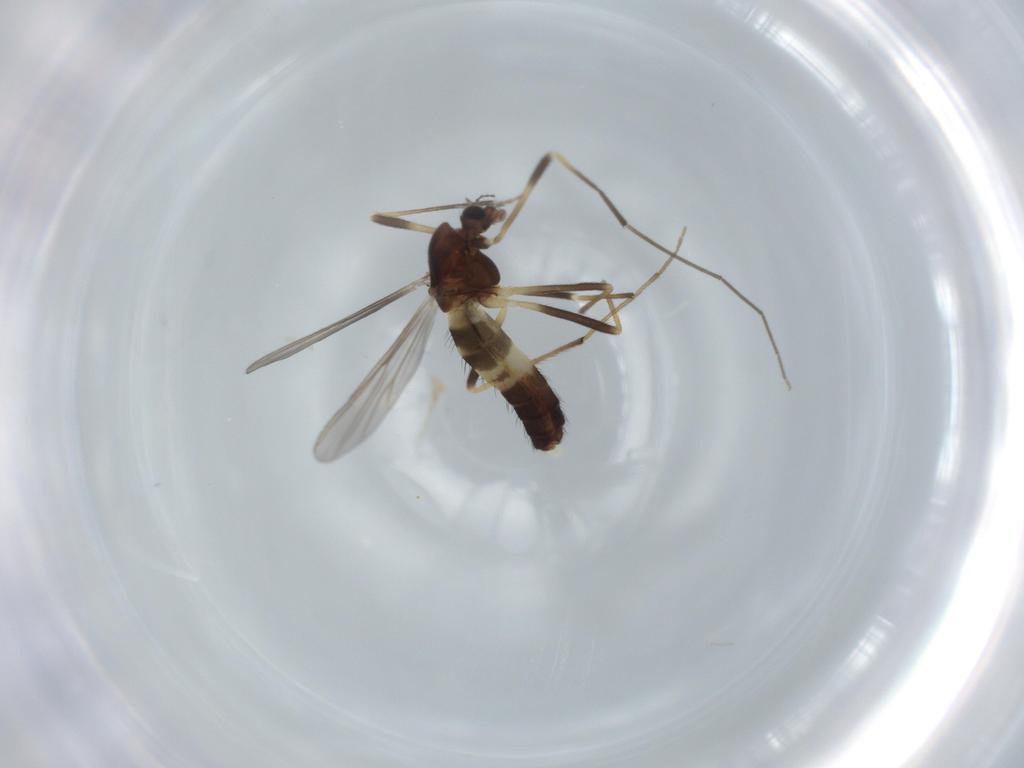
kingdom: Animalia
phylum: Arthropoda
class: Insecta
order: Diptera
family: Chironomidae
